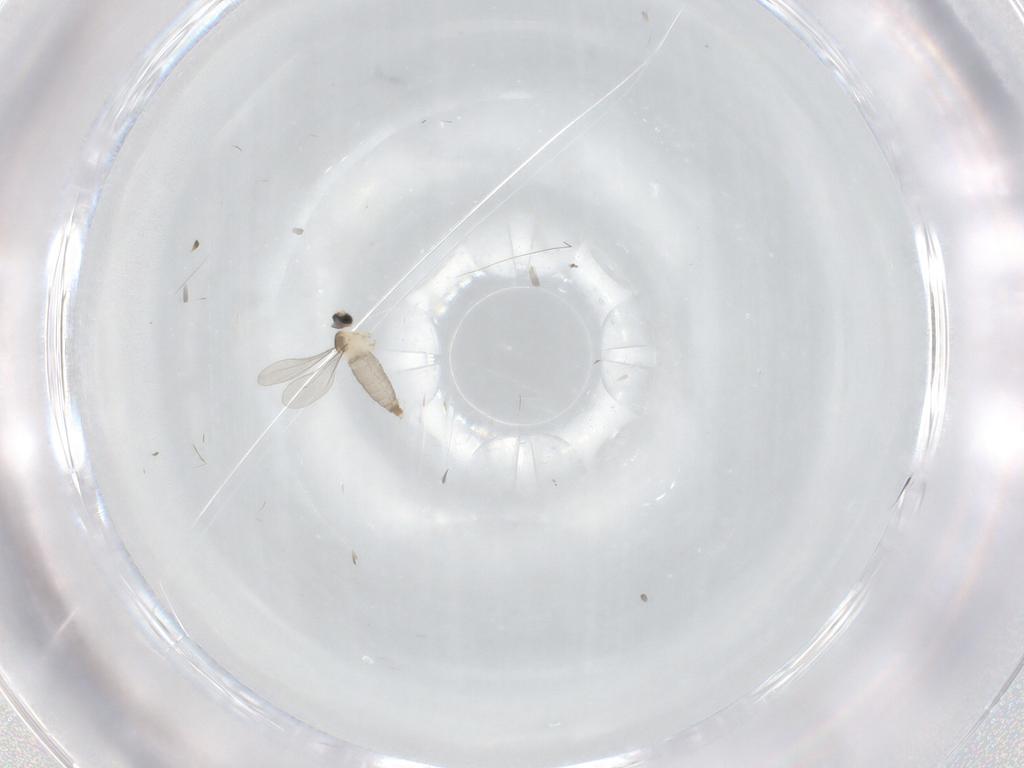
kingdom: Animalia
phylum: Arthropoda
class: Insecta
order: Diptera
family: Cecidomyiidae
